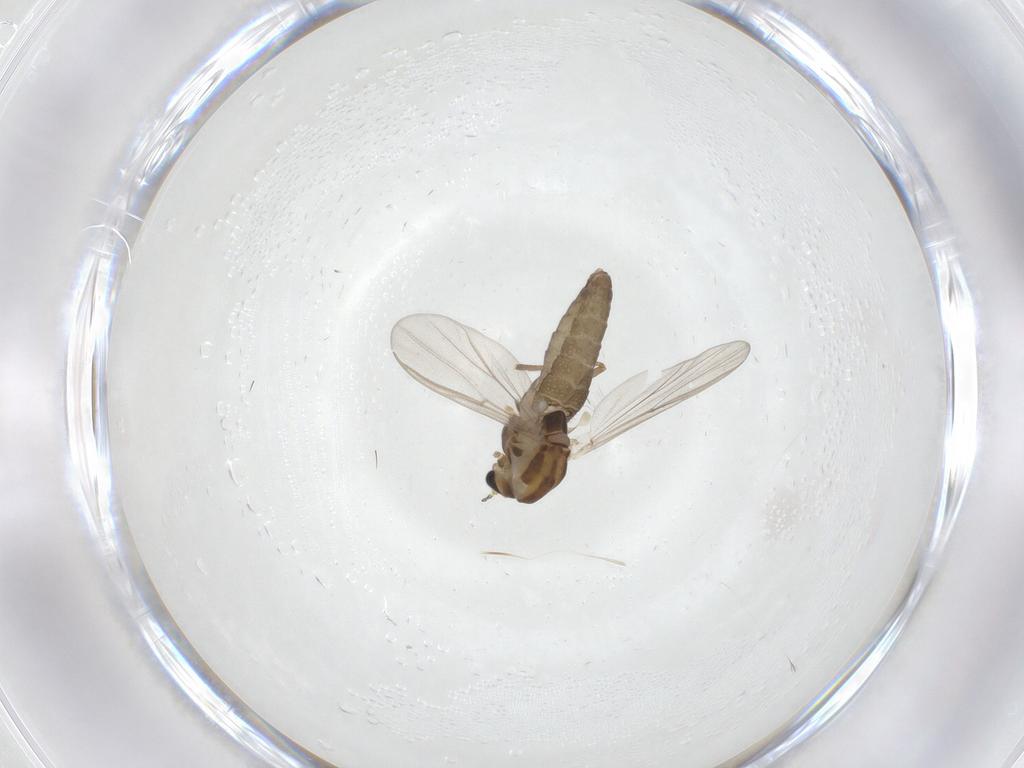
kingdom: Animalia
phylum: Arthropoda
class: Insecta
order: Diptera
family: Chironomidae
